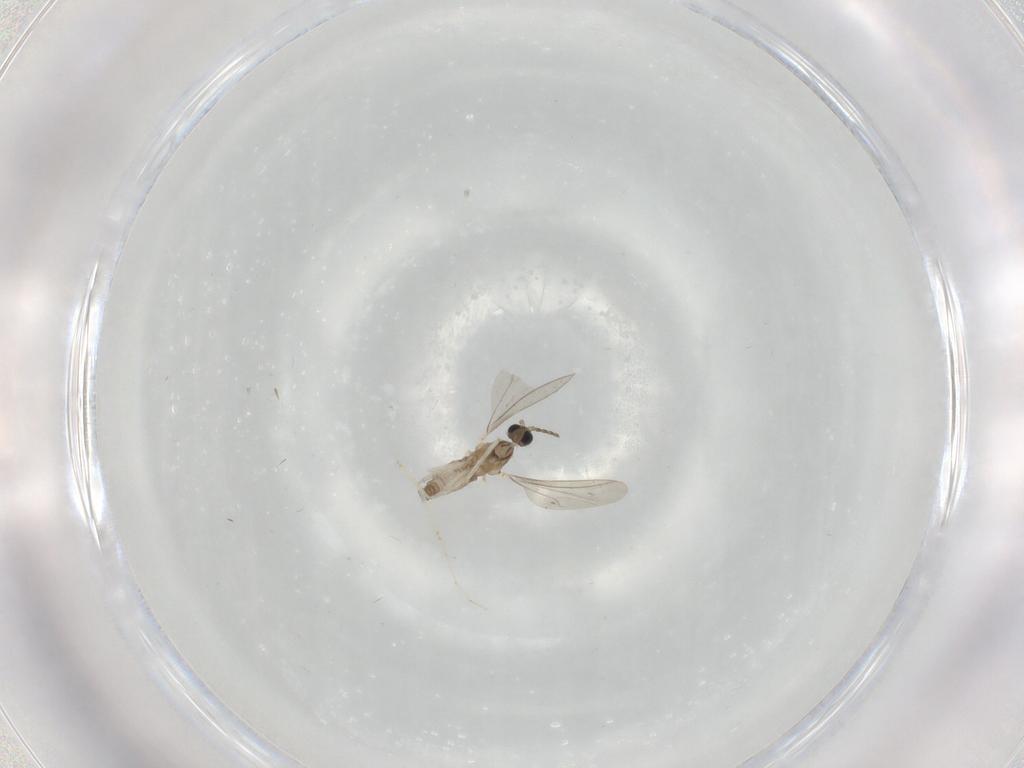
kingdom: Animalia
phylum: Arthropoda
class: Insecta
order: Diptera
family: Cecidomyiidae
